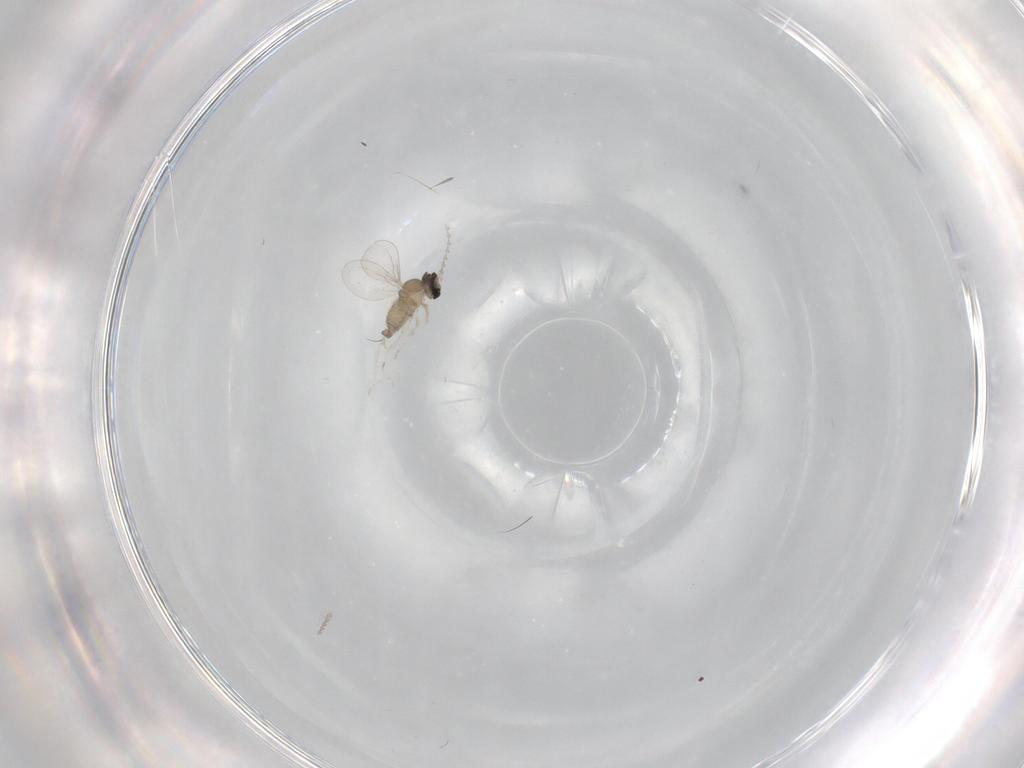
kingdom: Animalia
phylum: Arthropoda
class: Insecta
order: Diptera
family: Cecidomyiidae
